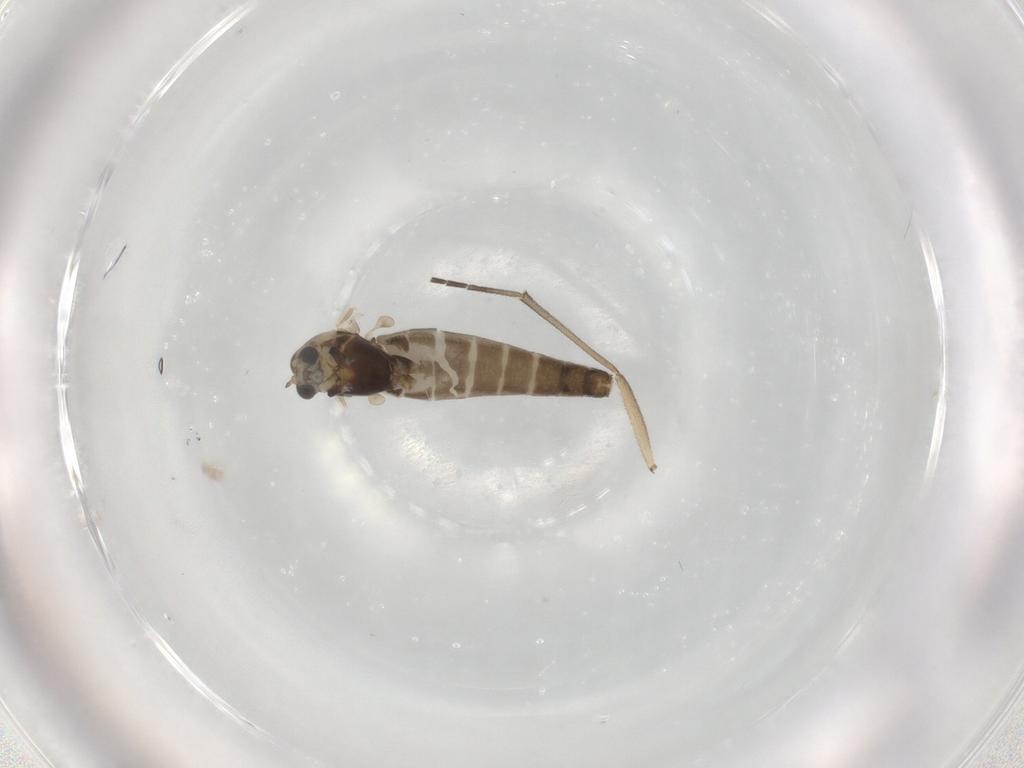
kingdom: Animalia
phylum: Arthropoda
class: Insecta
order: Diptera
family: Chironomidae
